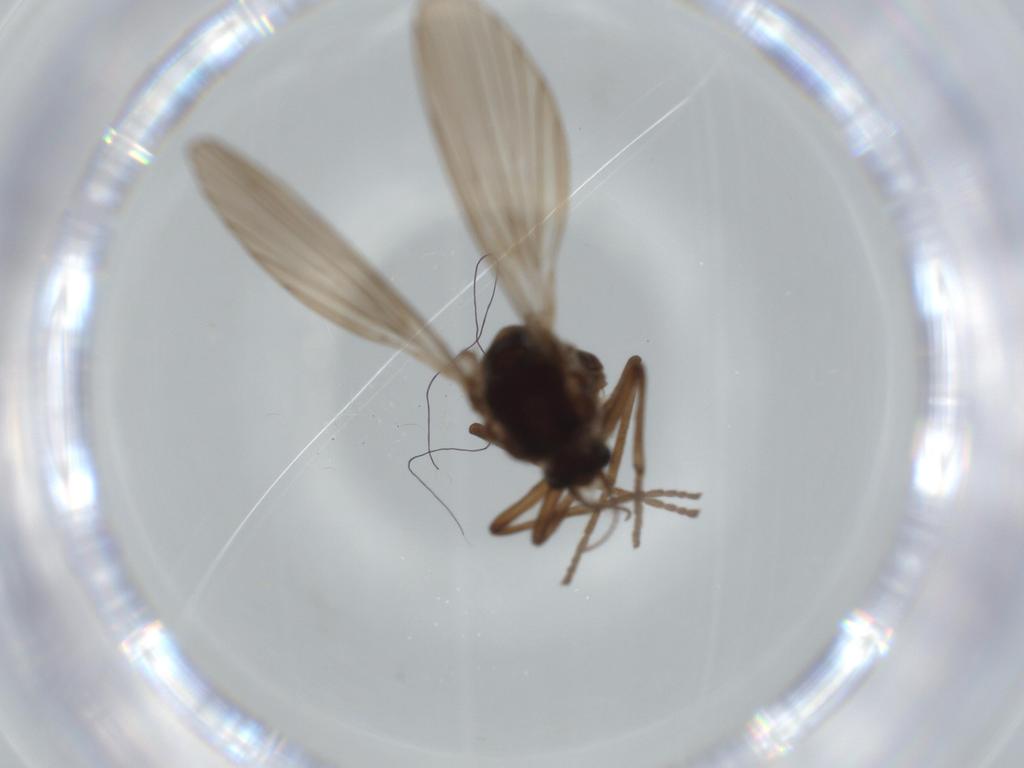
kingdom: Animalia
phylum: Arthropoda
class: Insecta
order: Diptera
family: Psychodidae
